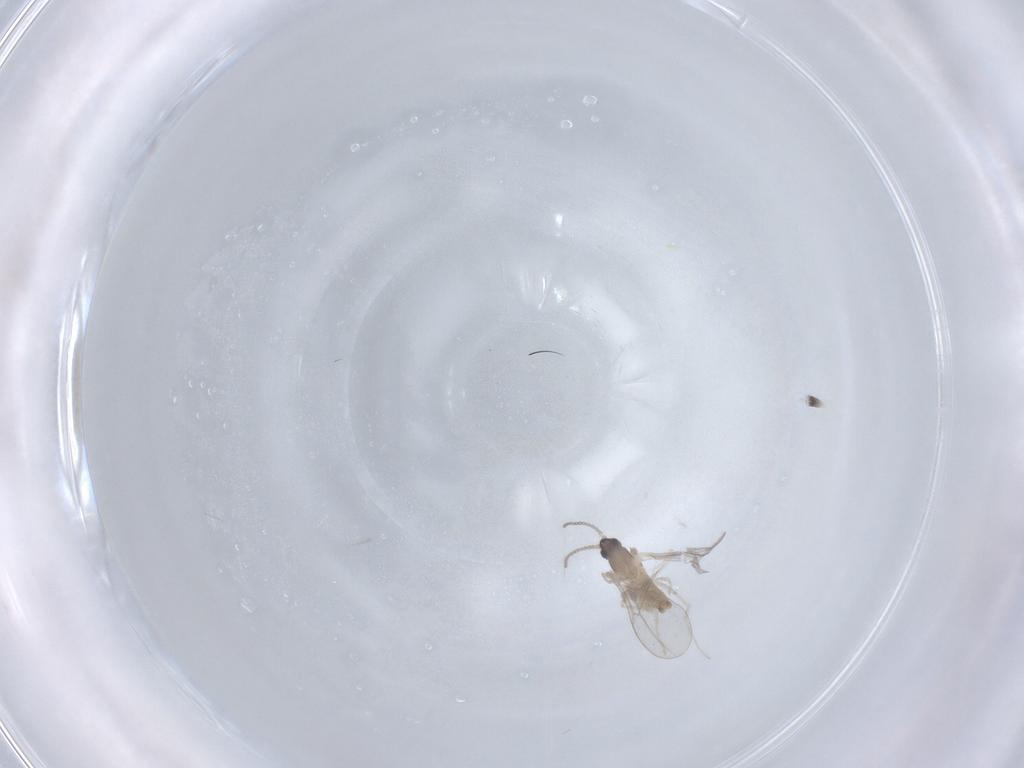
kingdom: Animalia
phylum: Arthropoda
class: Insecta
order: Diptera
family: Cecidomyiidae
